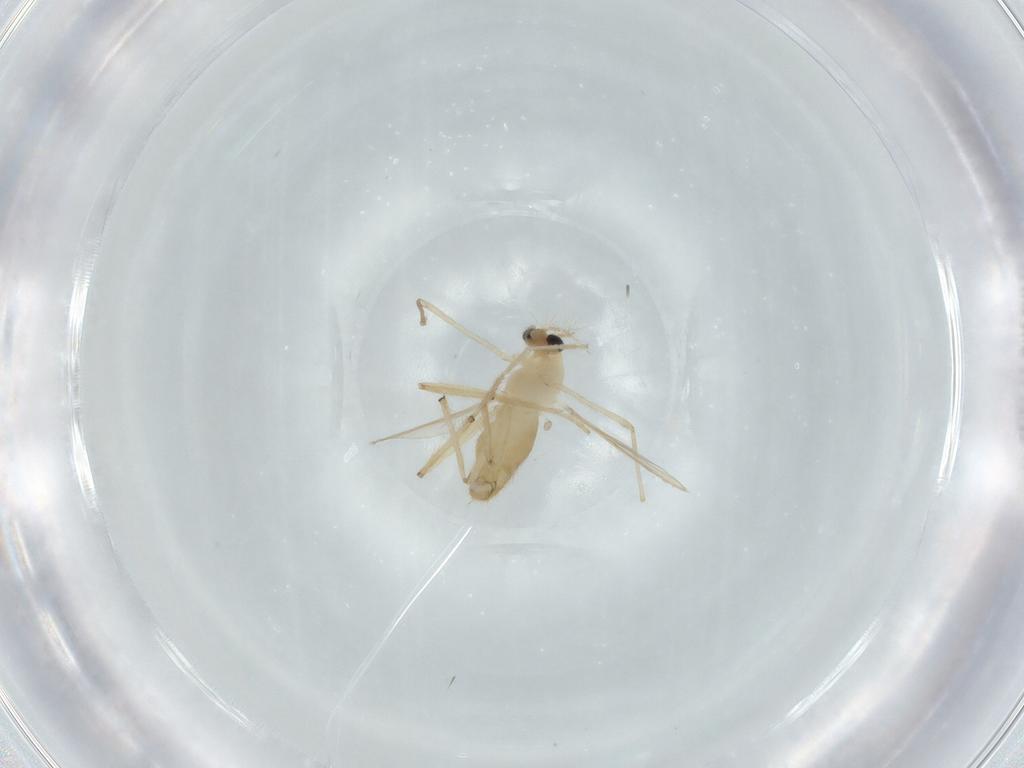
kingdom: Animalia
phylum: Arthropoda
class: Insecta
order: Diptera
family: Chironomidae
